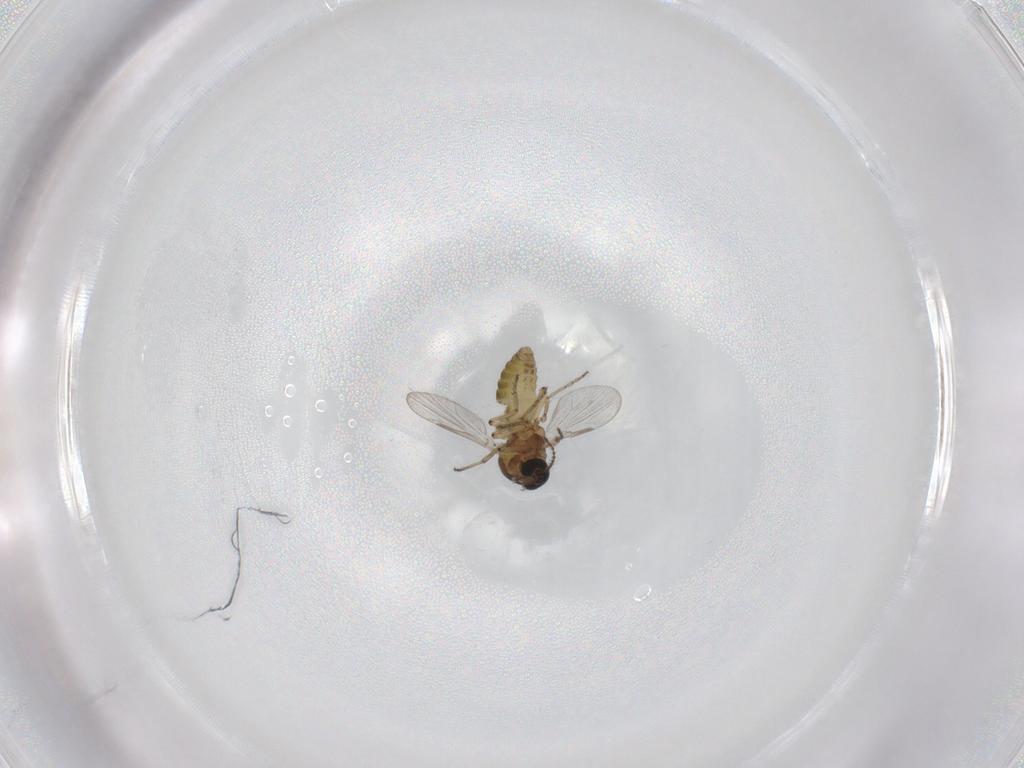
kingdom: Animalia
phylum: Arthropoda
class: Insecta
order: Diptera
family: Ceratopogonidae
